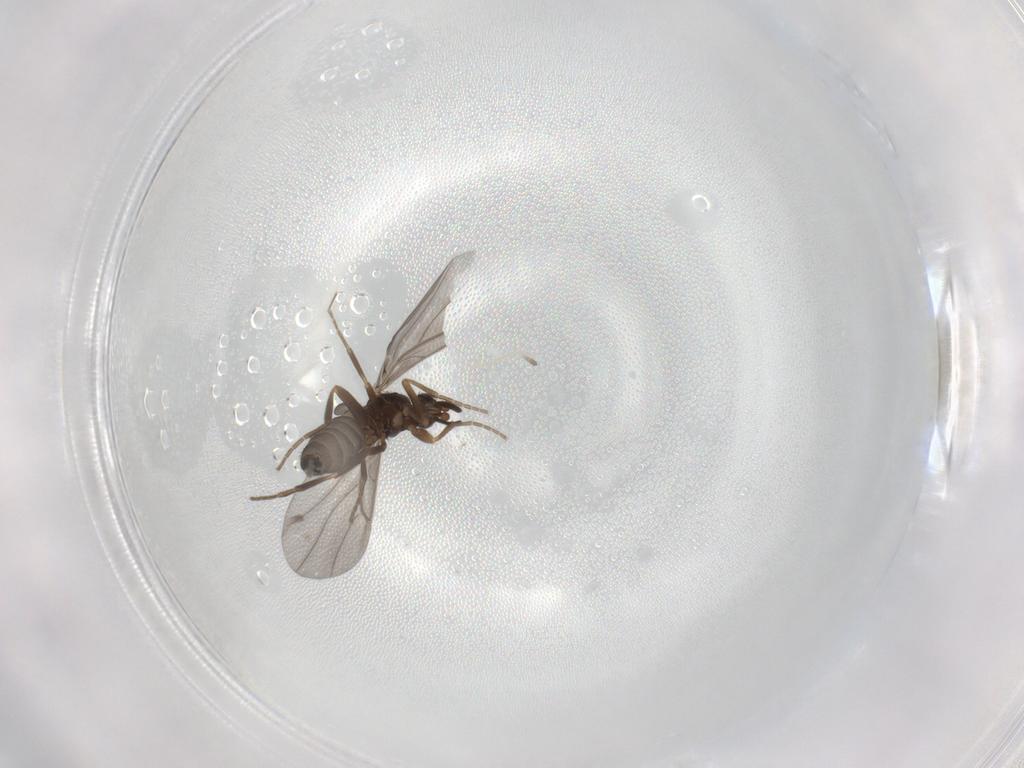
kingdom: Animalia
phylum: Arthropoda
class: Insecta
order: Diptera
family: Phoridae
